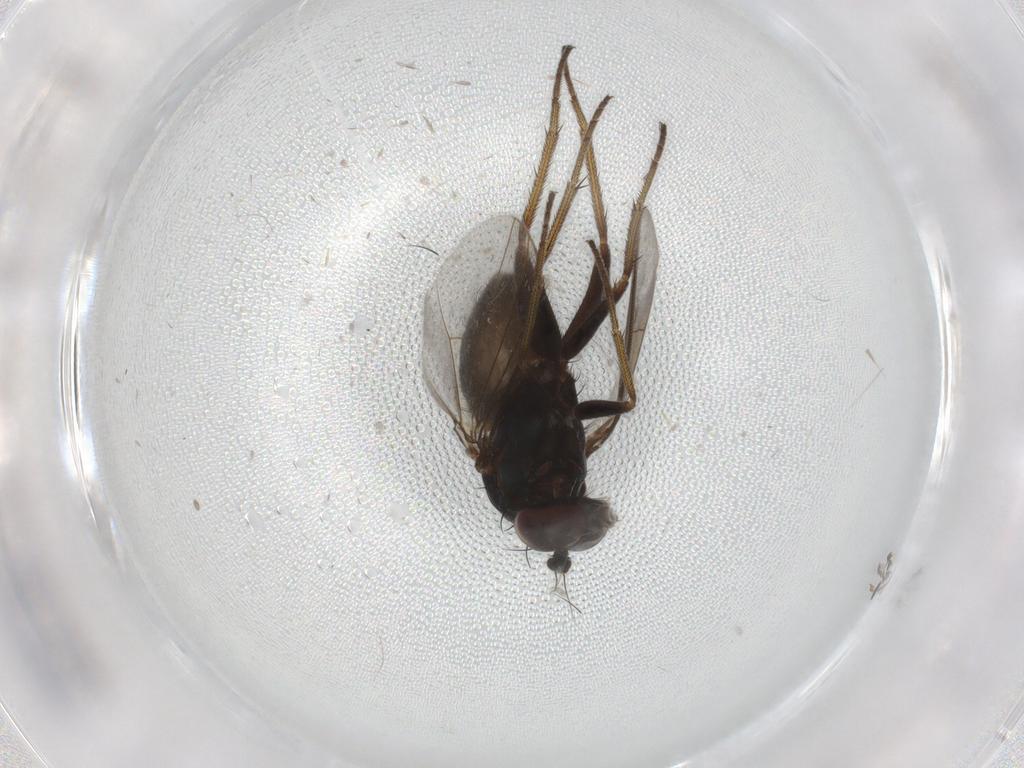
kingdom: Animalia
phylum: Arthropoda
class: Insecta
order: Diptera
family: Dolichopodidae
